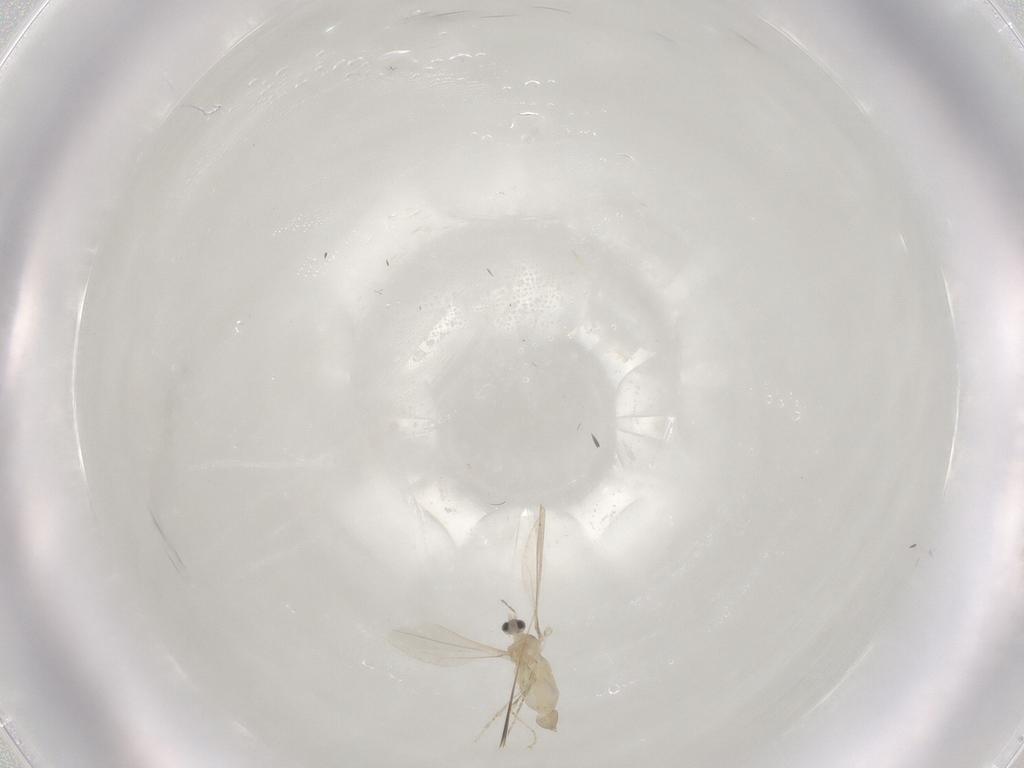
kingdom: Animalia
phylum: Arthropoda
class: Insecta
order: Diptera
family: Cecidomyiidae
